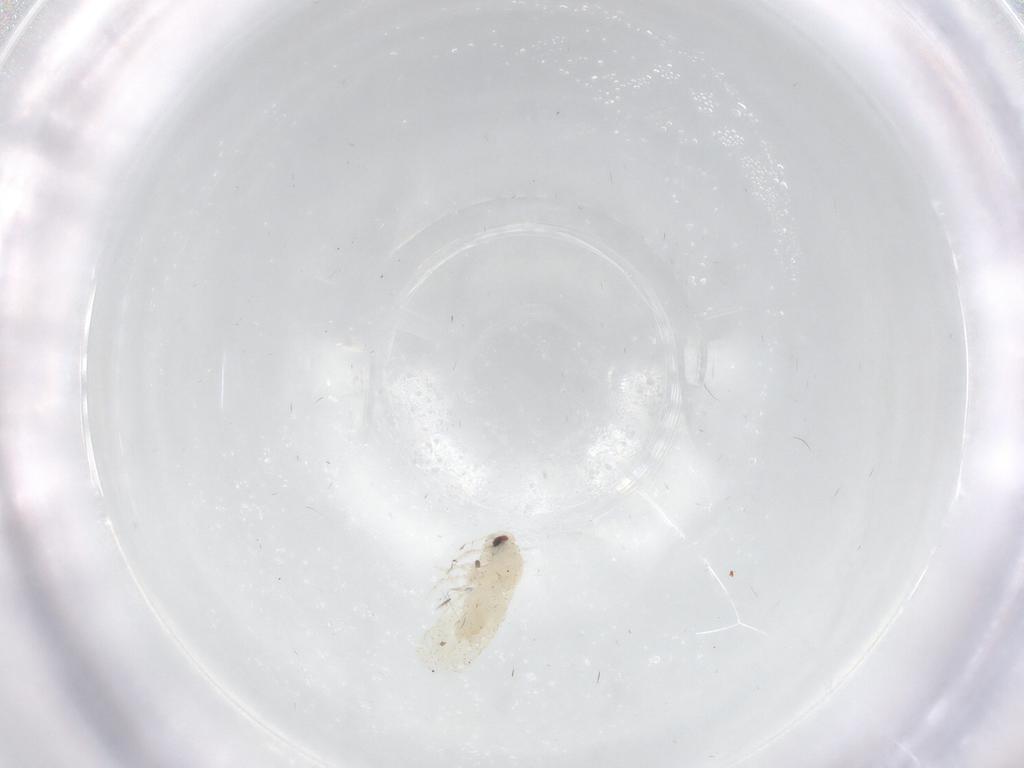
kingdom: Animalia
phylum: Arthropoda
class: Insecta
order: Hemiptera
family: Aleyrodidae
